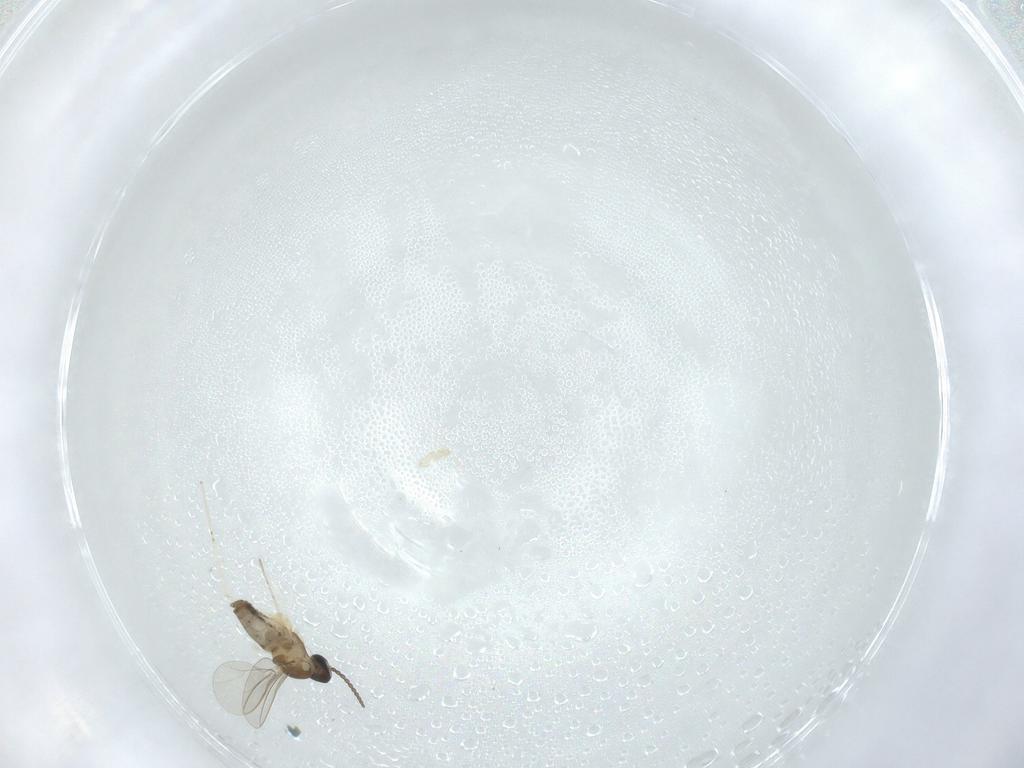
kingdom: Animalia
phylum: Arthropoda
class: Insecta
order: Diptera
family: Cecidomyiidae
